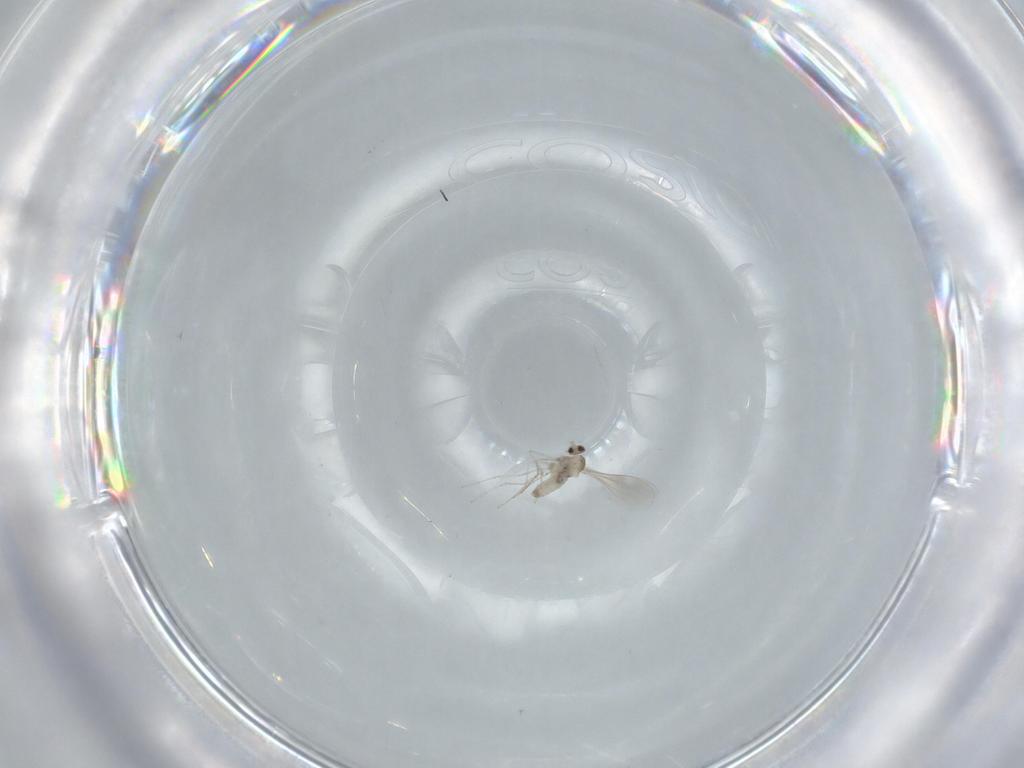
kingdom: Animalia
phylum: Arthropoda
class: Insecta
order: Diptera
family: Cecidomyiidae
